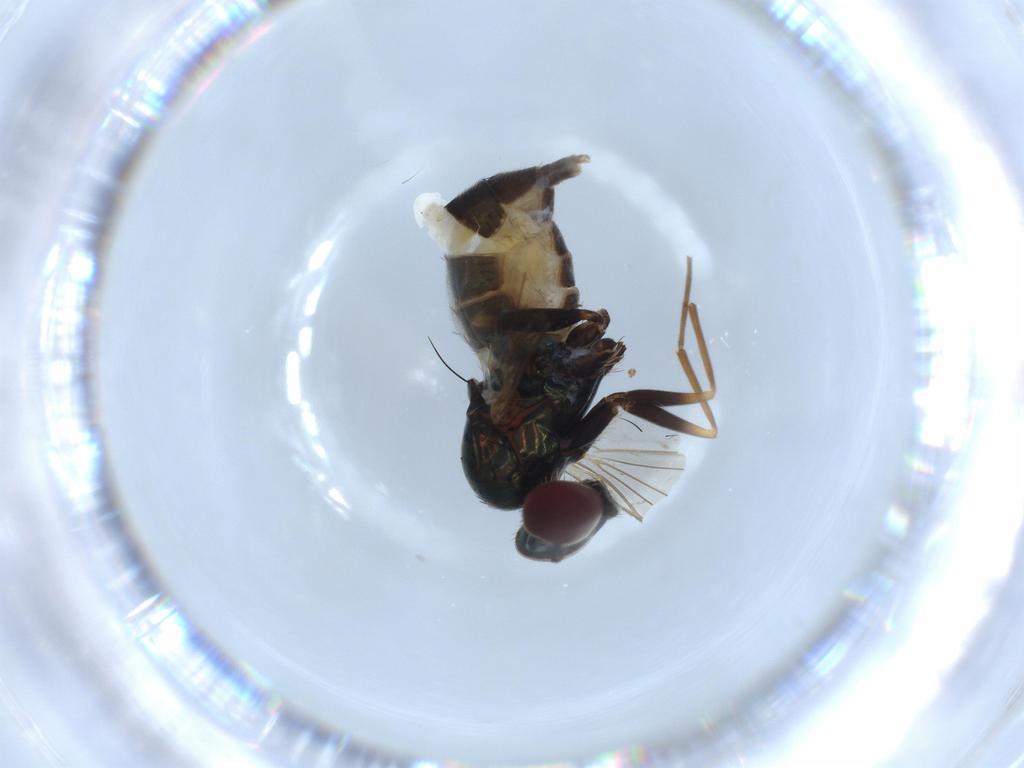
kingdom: Animalia
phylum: Arthropoda
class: Insecta
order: Diptera
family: Dolichopodidae
